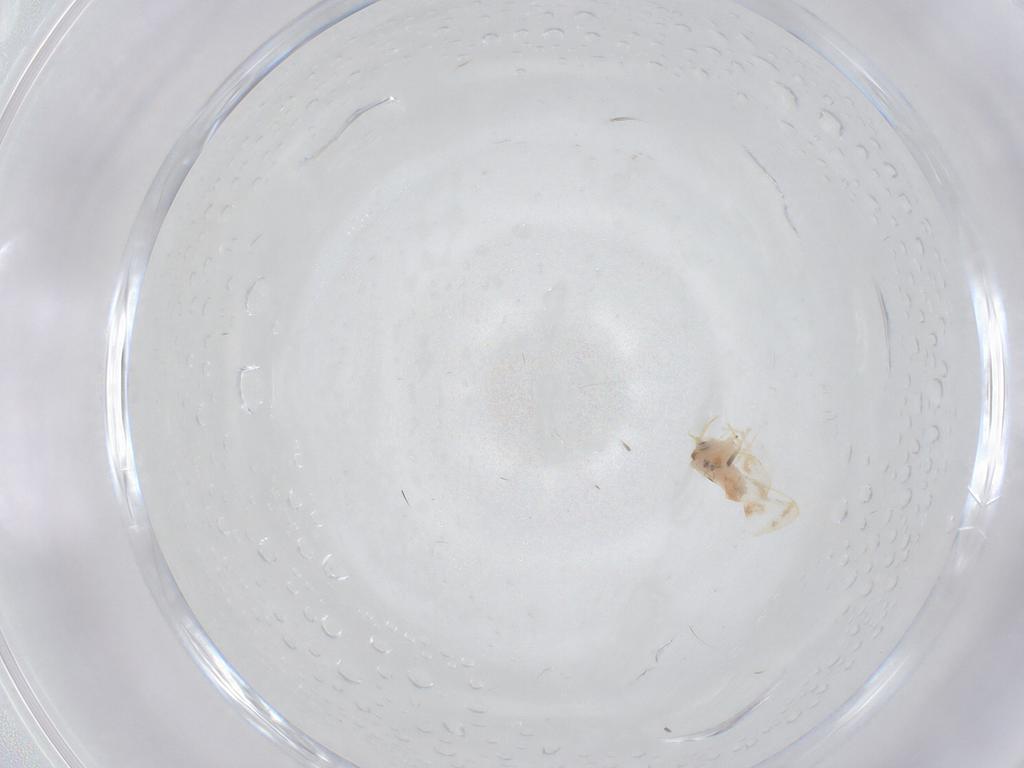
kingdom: Animalia
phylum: Arthropoda
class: Insecta
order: Hemiptera
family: Aleyrodidae
